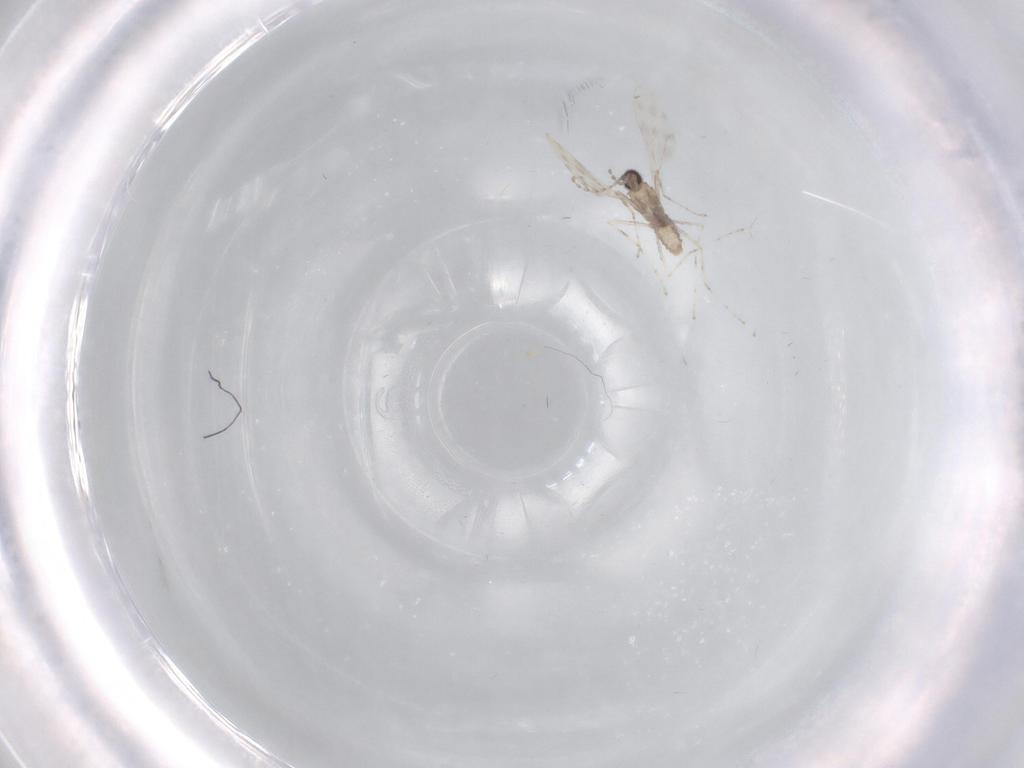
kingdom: Animalia
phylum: Arthropoda
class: Insecta
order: Diptera
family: Cecidomyiidae
